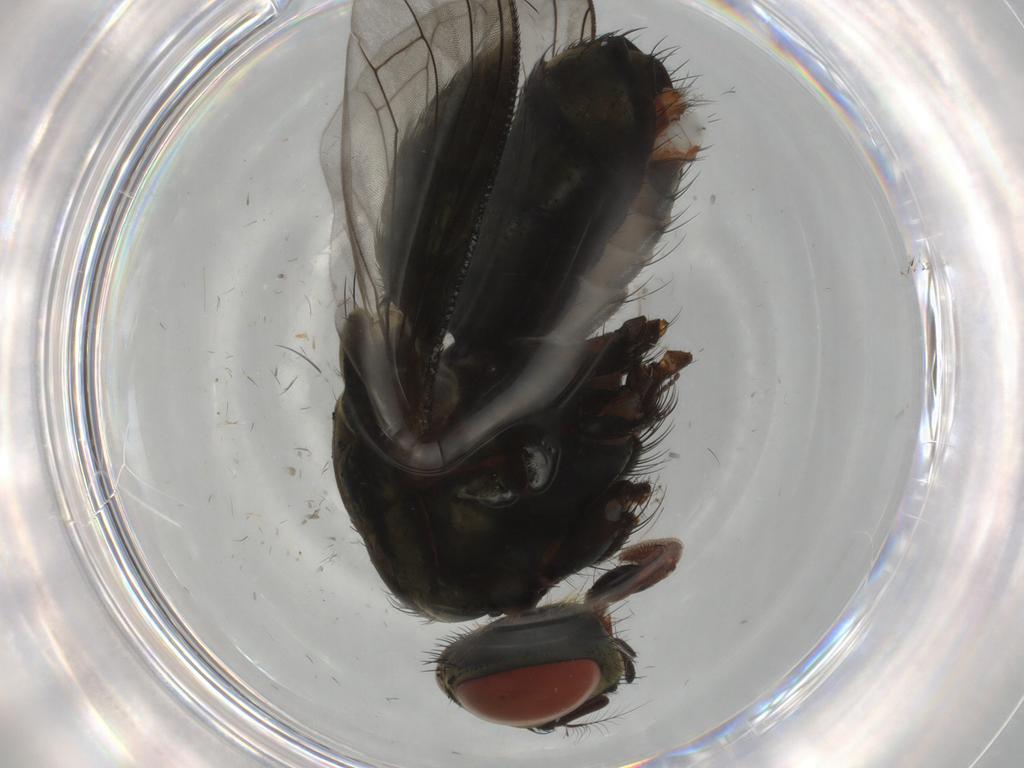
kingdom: Animalia
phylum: Arthropoda
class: Insecta
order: Diptera
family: Sarcophagidae
